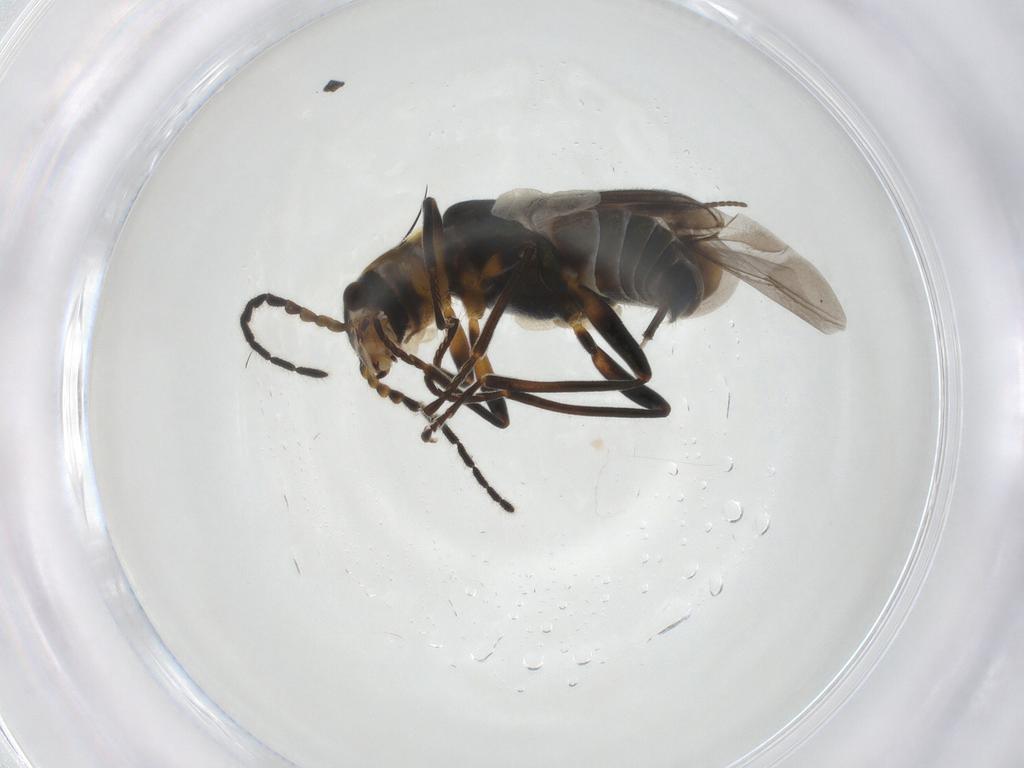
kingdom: Animalia
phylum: Arthropoda
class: Insecta
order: Coleoptera
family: Melyridae
